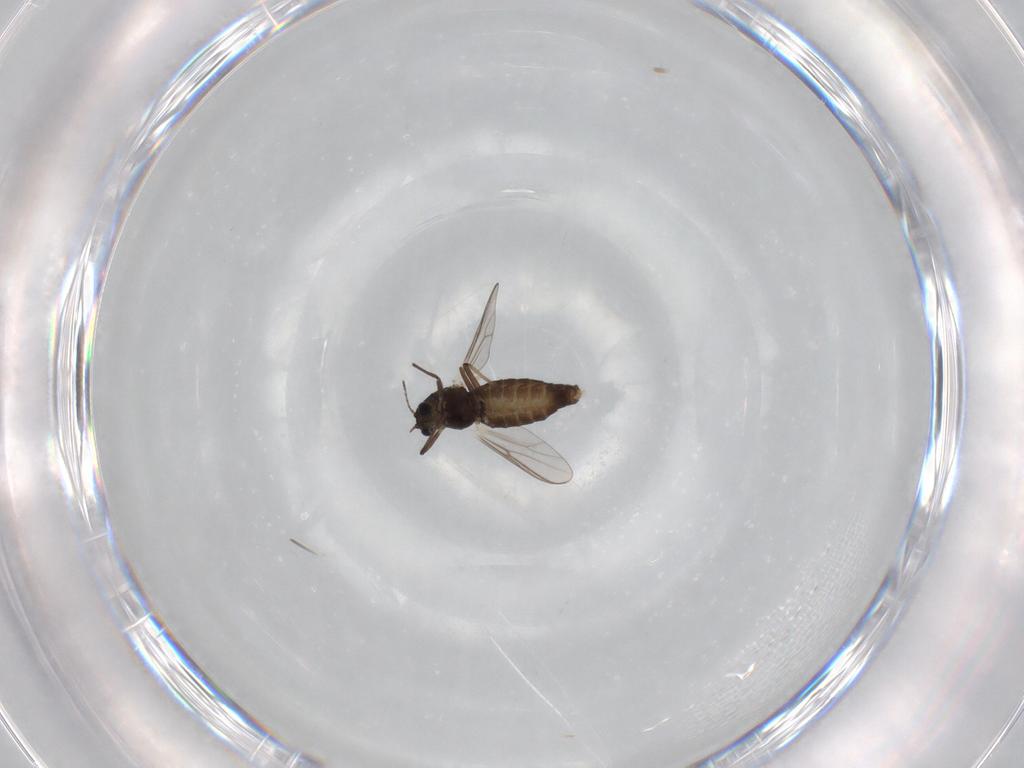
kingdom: Animalia
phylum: Arthropoda
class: Insecta
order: Diptera
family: Chironomidae
